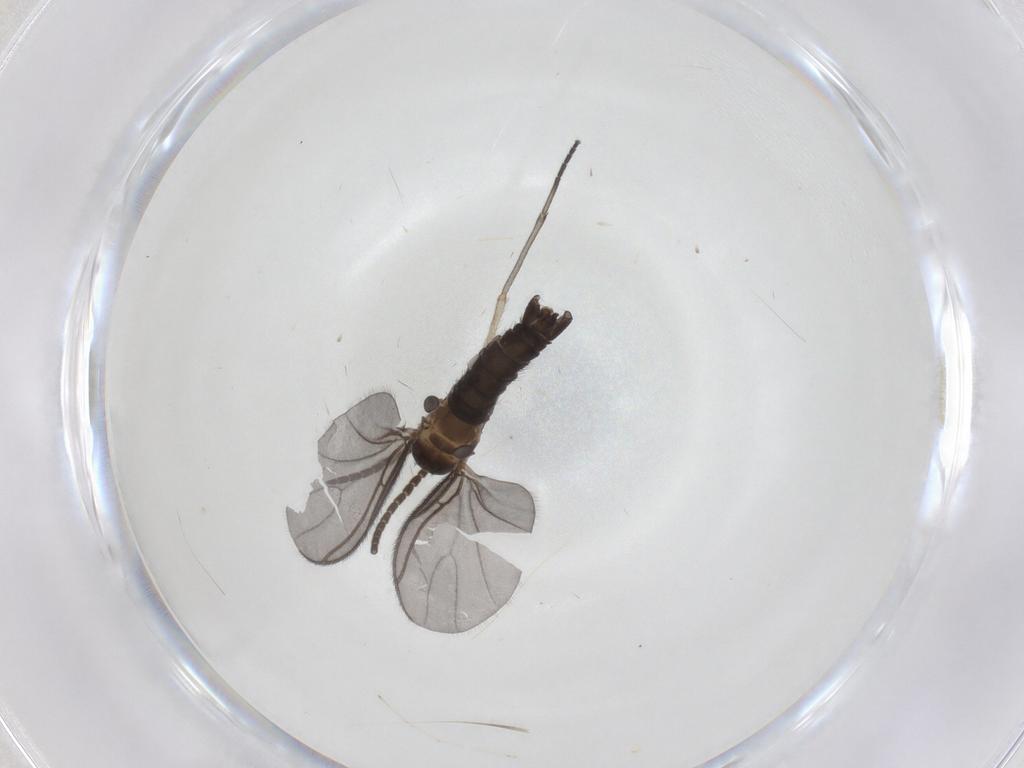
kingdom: Animalia
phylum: Arthropoda
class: Insecta
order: Diptera
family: Sciaridae
